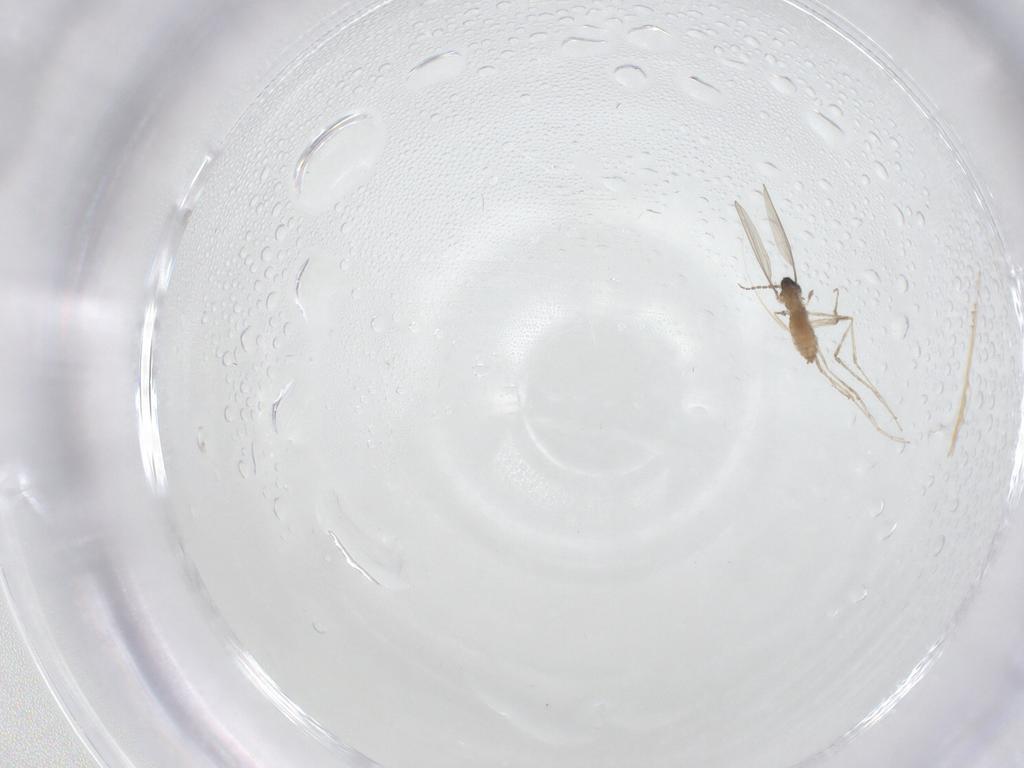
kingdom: Animalia
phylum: Arthropoda
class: Insecta
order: Diptera
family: Cecidomyiidae
